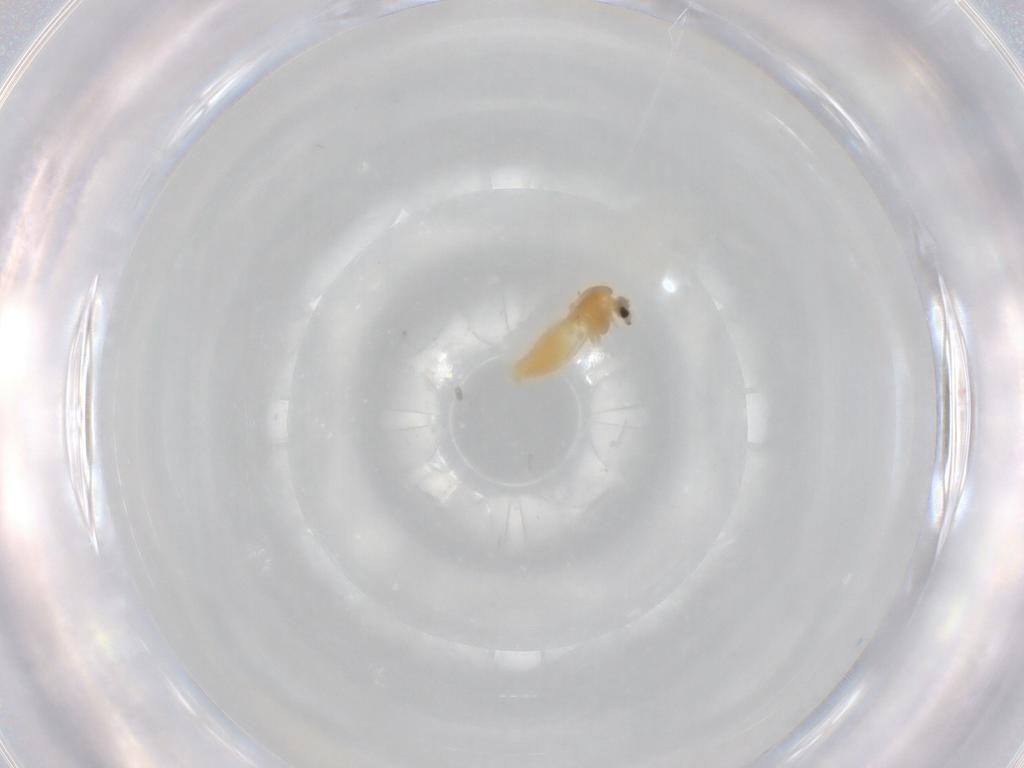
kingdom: Animalia
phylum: Arthropoda
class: Insecta
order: Diptera
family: Chironomidae
